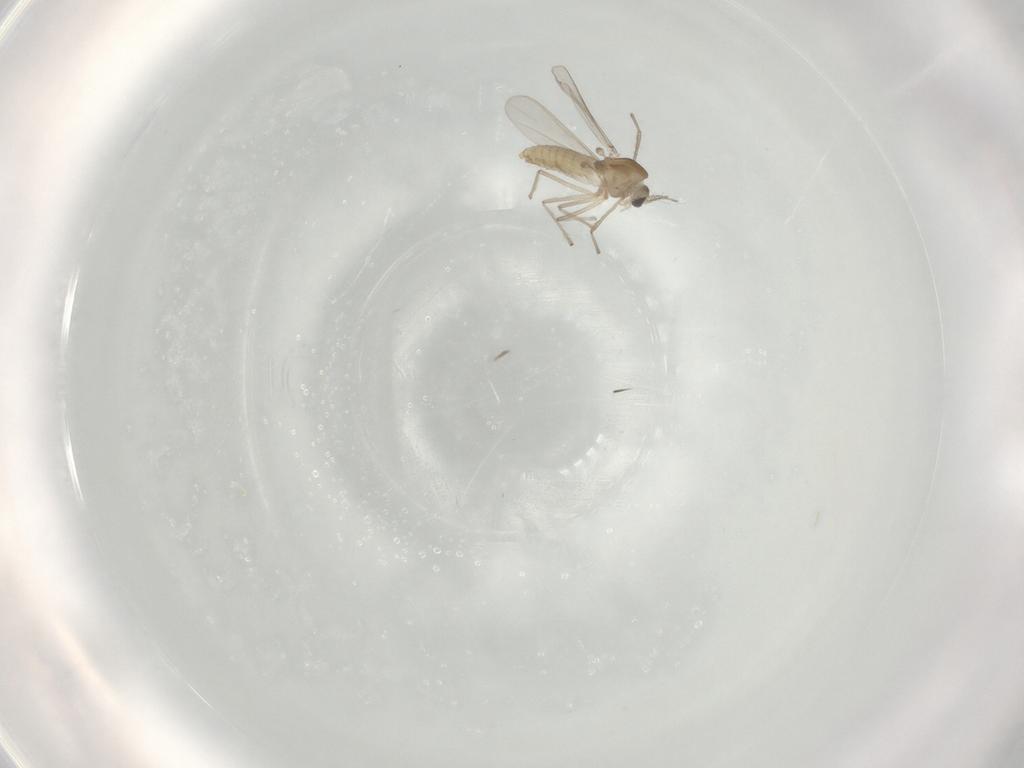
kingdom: Animalia
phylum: Arthropoda
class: Insecta
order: Diptera
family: Chironomidae
